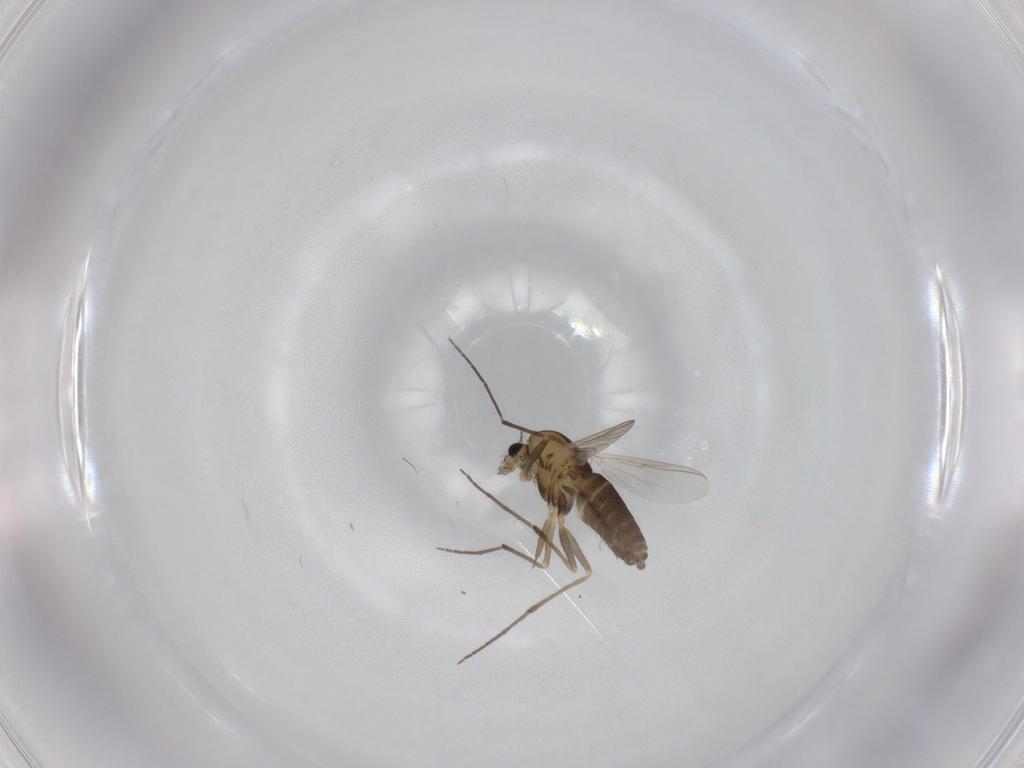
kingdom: Animalia
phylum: Arthropoda
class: Insecta
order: Diptera
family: Chironomidae
